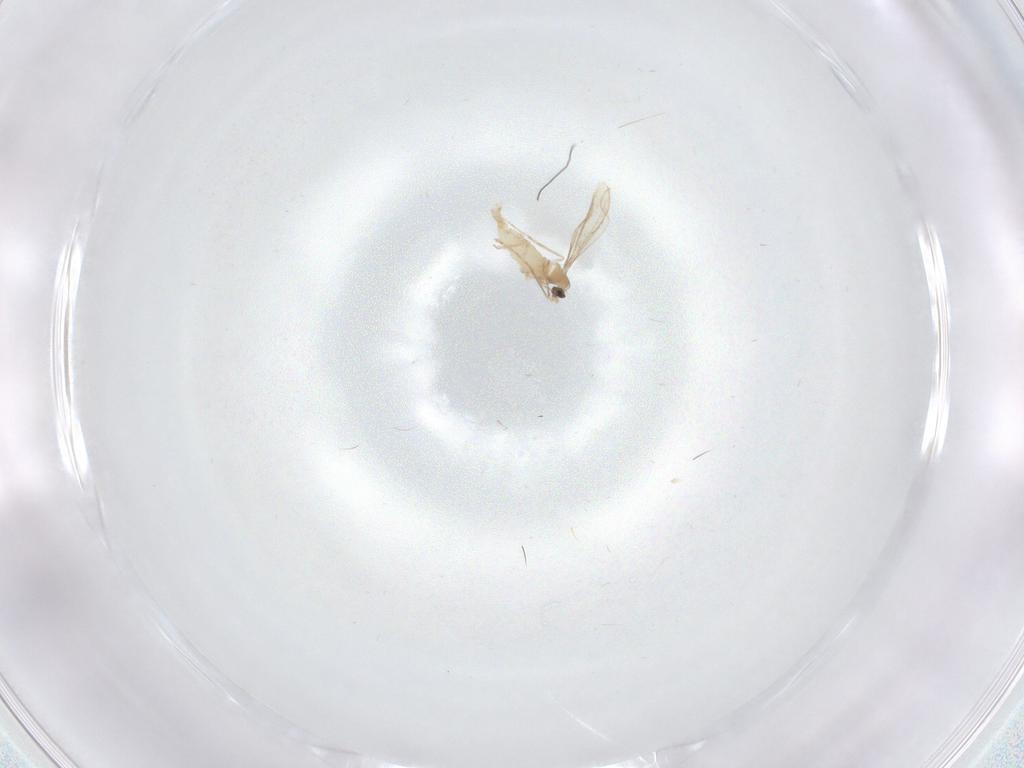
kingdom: Animalia
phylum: Arthropoda
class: Insecta
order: Diptera
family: Cecidomyiidae
